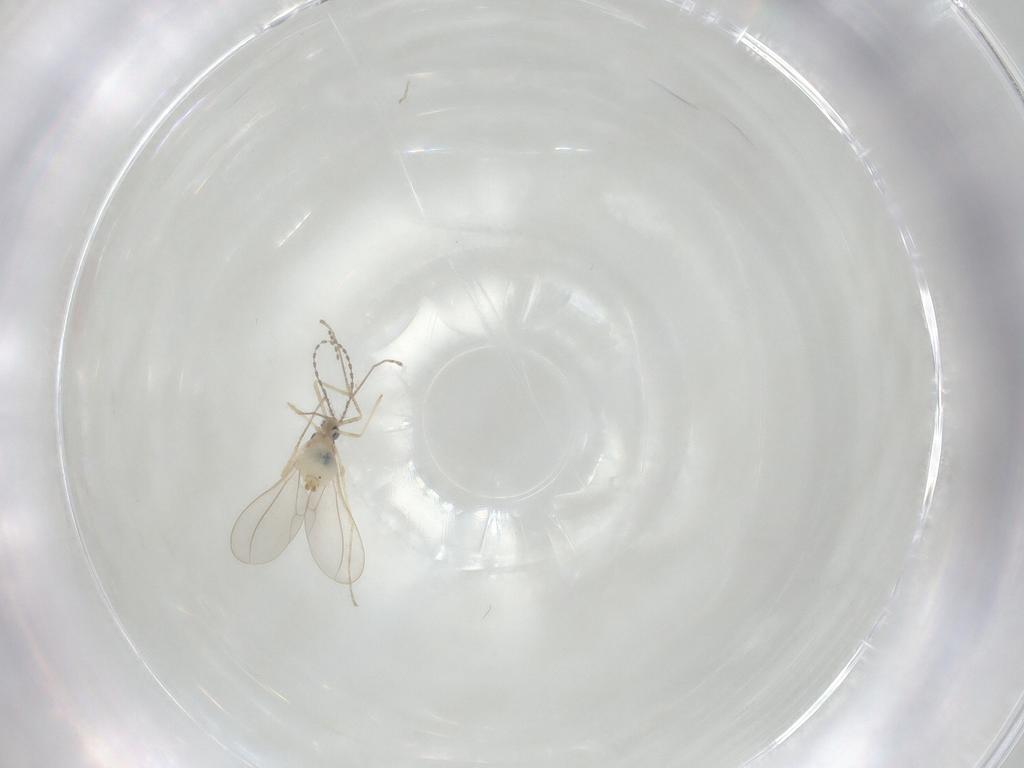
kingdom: Animalia
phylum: Arthropoda
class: Insecta
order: Diptera
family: Cecidomyiidae
